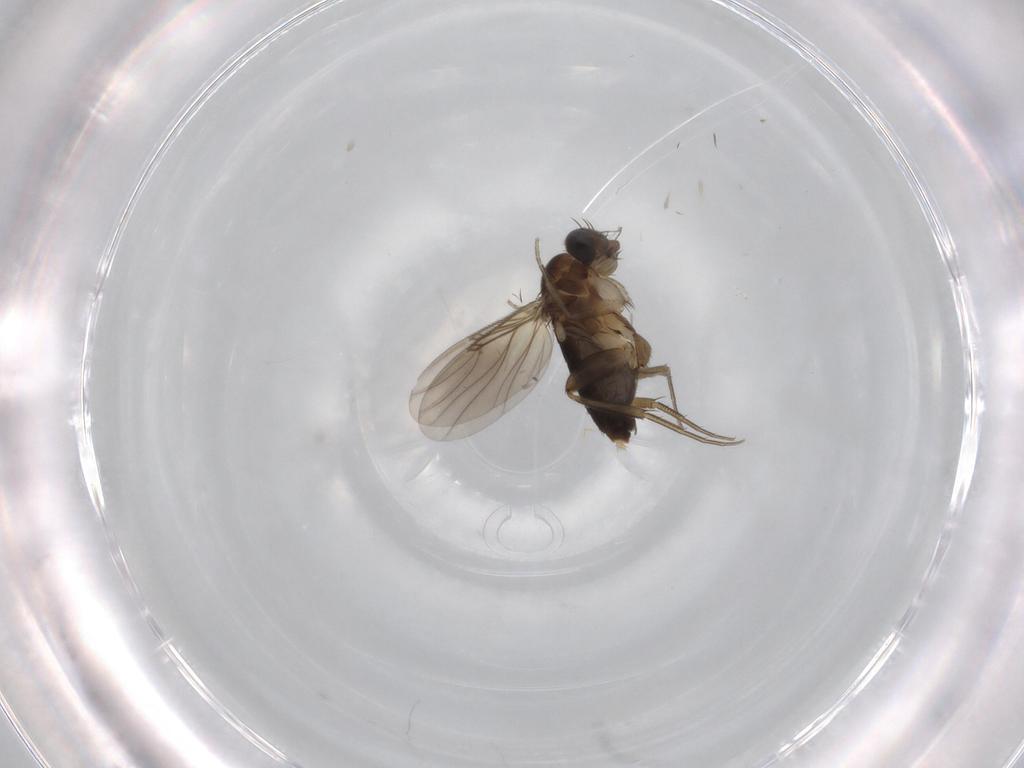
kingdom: Animalia
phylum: Arthropoda
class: Insecta
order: Diptera
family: Phoridae
